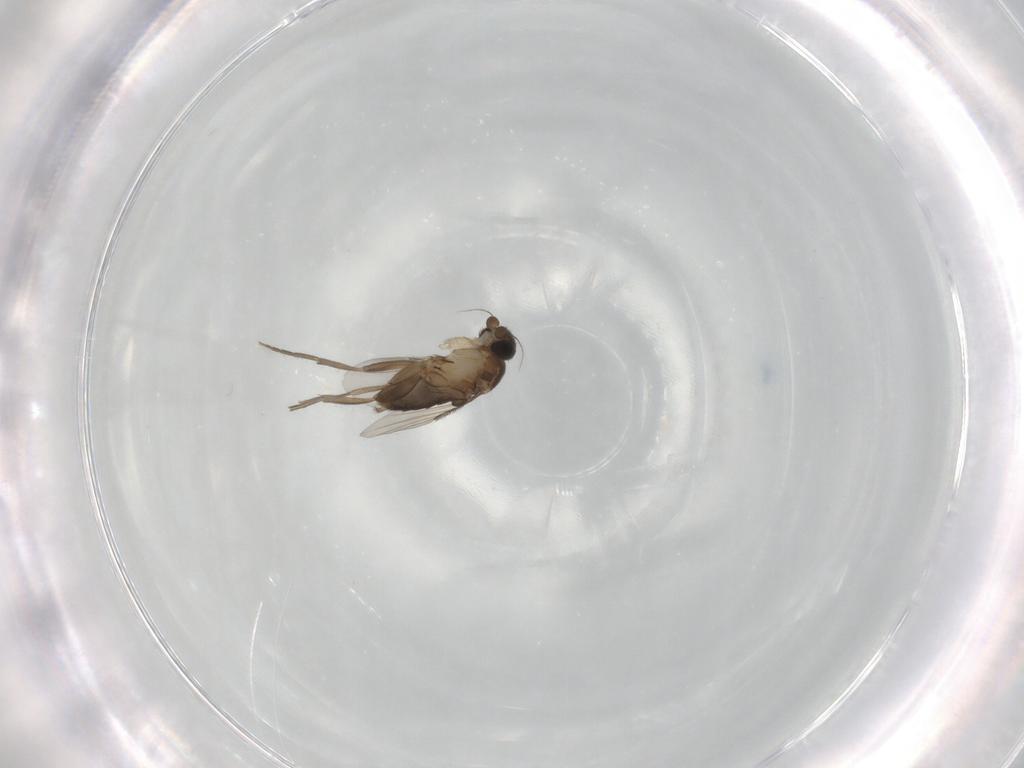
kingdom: Animalia
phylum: Arthropoda
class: Insecta
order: Diptera
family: Phoridae
